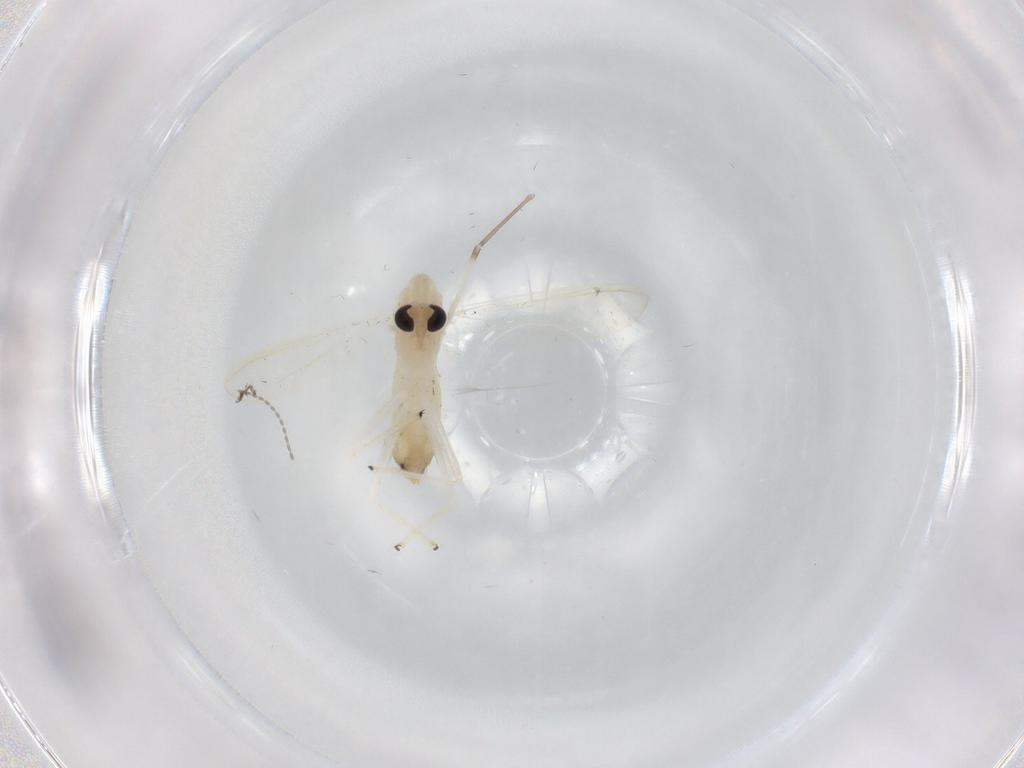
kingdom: Animalia
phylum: Arthropoda
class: Insecta
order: Diptera
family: Chironomidae
